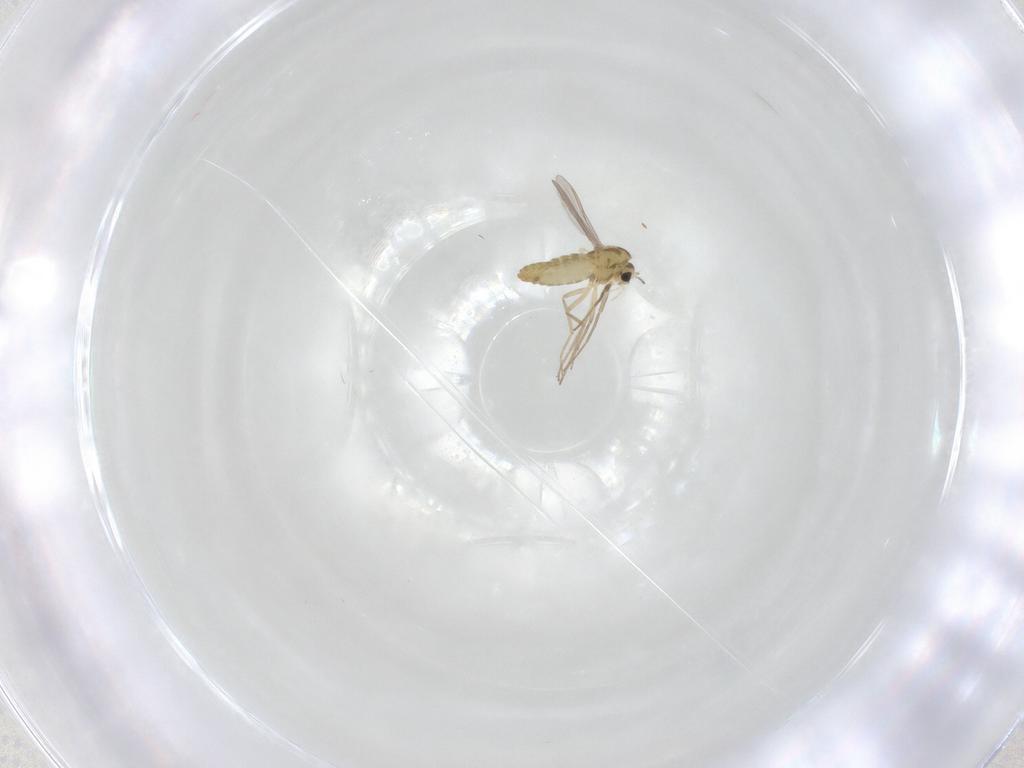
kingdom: Animalia
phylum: Arthropoda
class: Insecta
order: Diptera
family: Chironomidae
